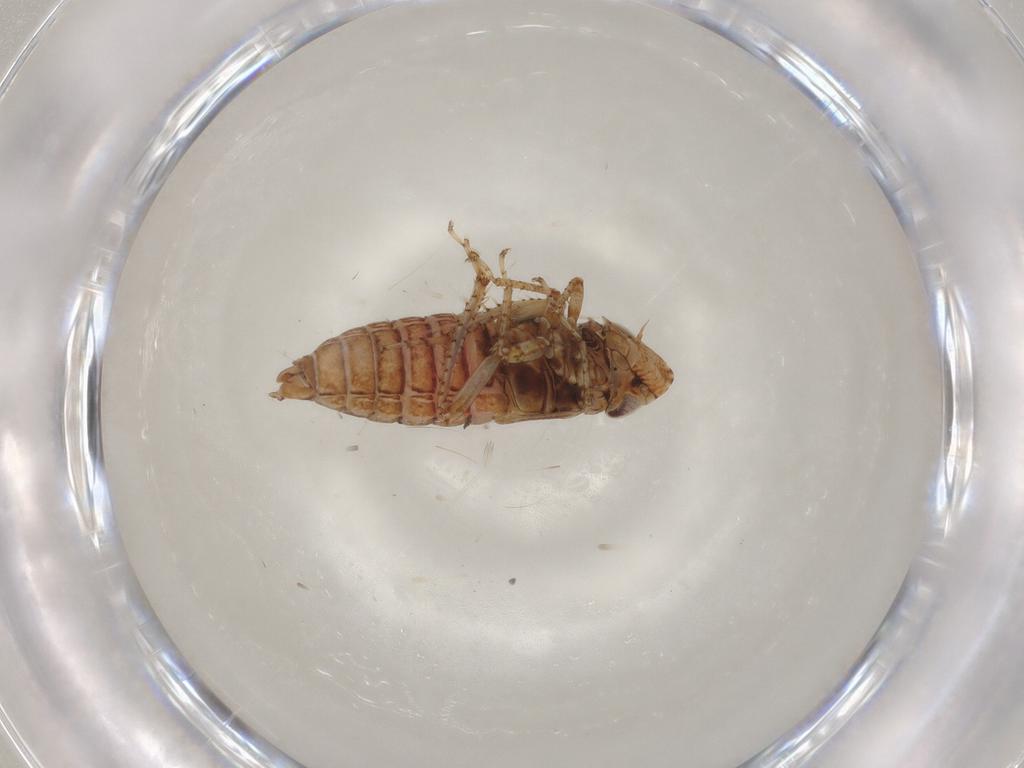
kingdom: Animalia
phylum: Arthropoda
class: Insecta
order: Hemiptera
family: Cicadellidae
